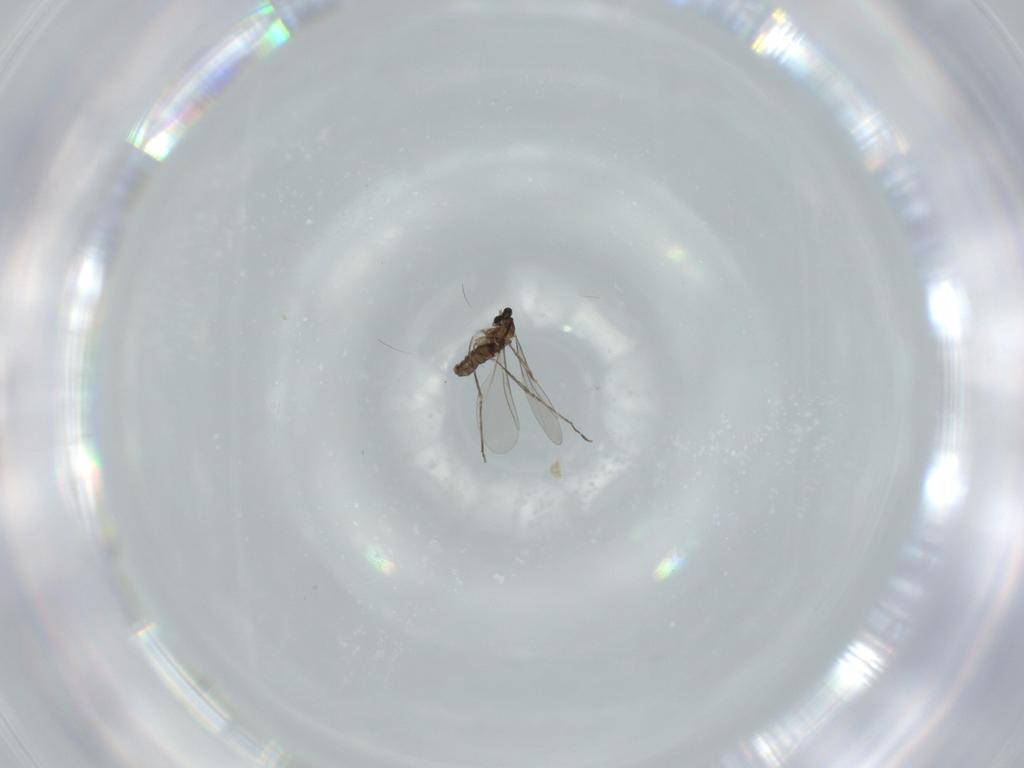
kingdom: Animalia
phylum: Arthropoda
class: Insecta
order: Diptera
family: Cecidomyiidae
